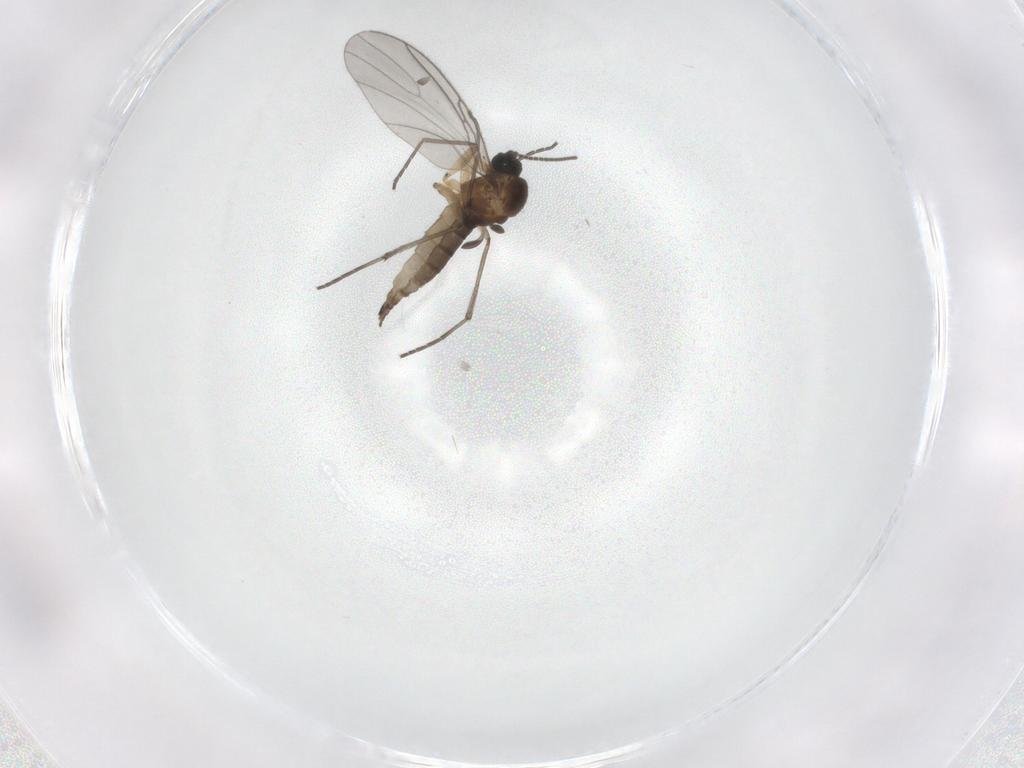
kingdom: Animalia
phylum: Arthropoda
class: Insecta
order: Diptera
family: Sciaridae
